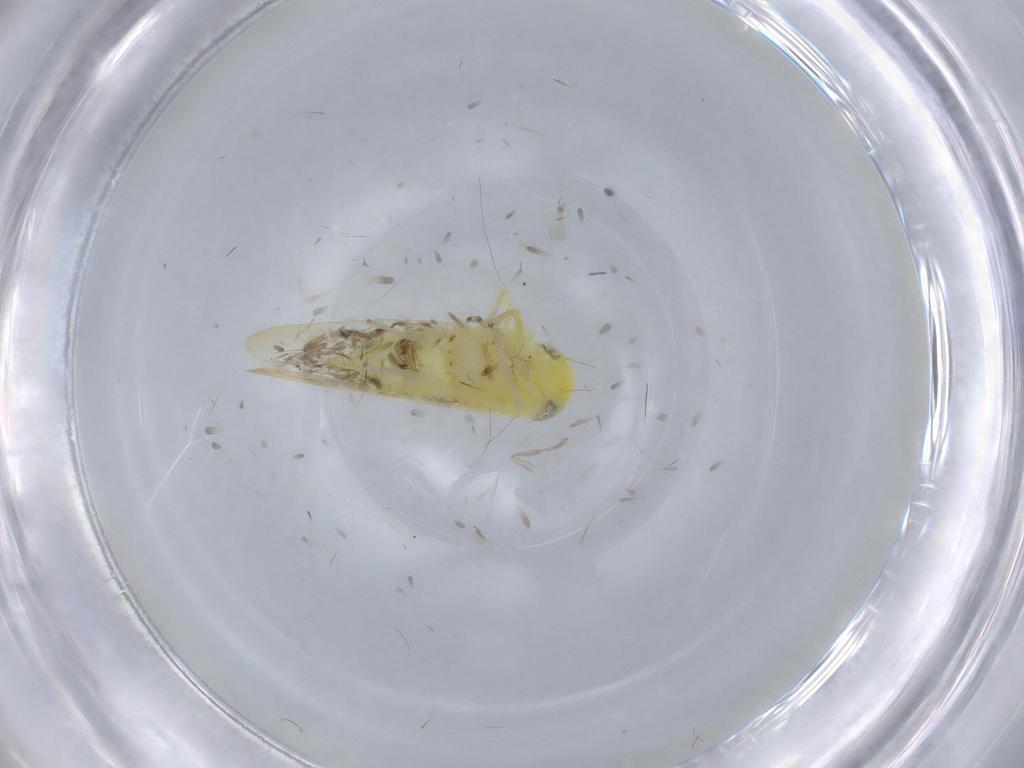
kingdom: Animalia
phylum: Arthropoda
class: Insecta
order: Hemiptera
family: Cicadellidae
